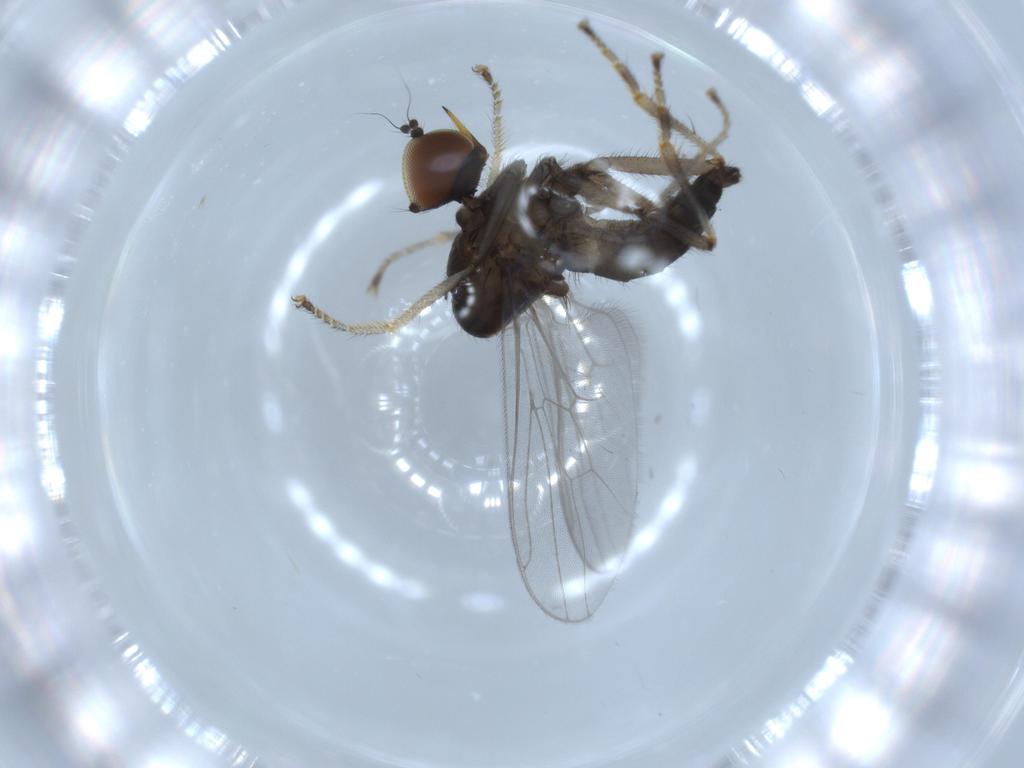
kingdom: Animalia
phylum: Arthropoda
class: Insecta
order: Diptera
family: Hybotidae
